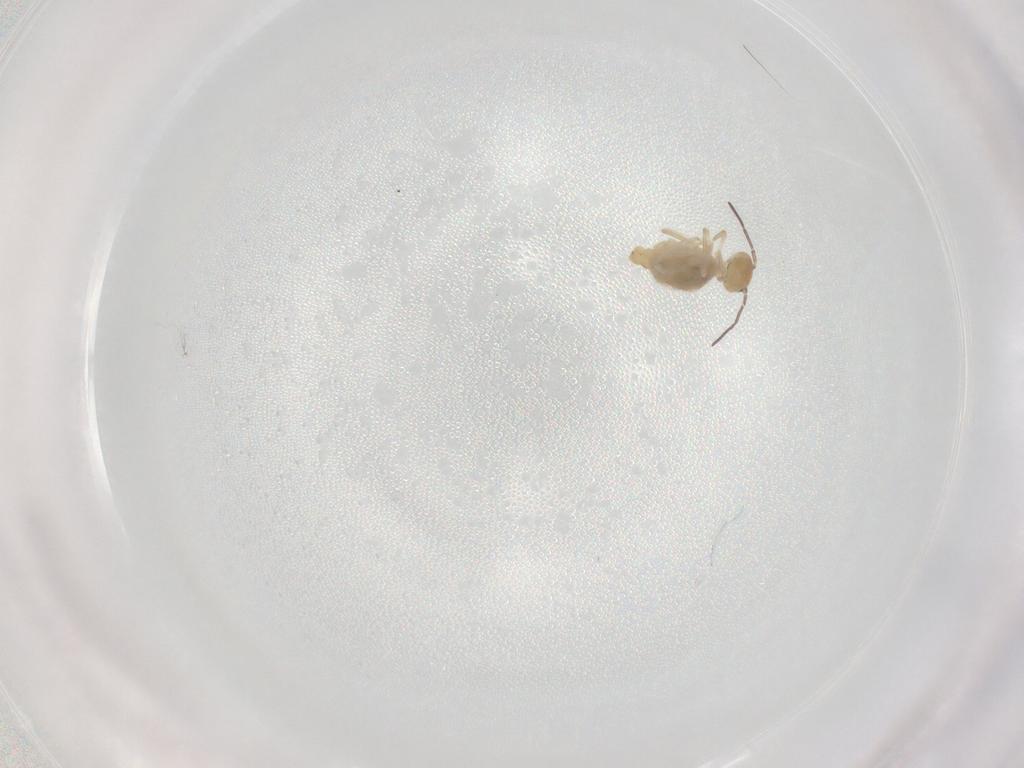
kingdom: Animalia
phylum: Arthropoda
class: Collembola
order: Symphypleona
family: Bourletiellidae
